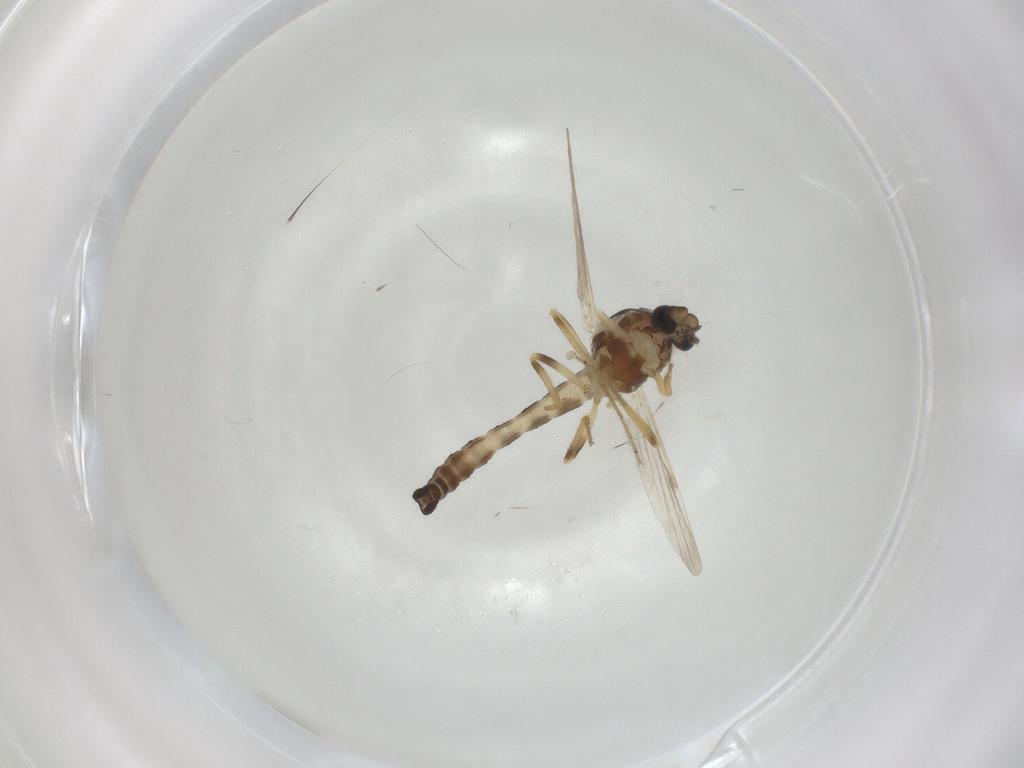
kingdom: Animalia
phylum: Arthropoda
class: Insecta
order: Diptera
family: Ceratopogonidae
